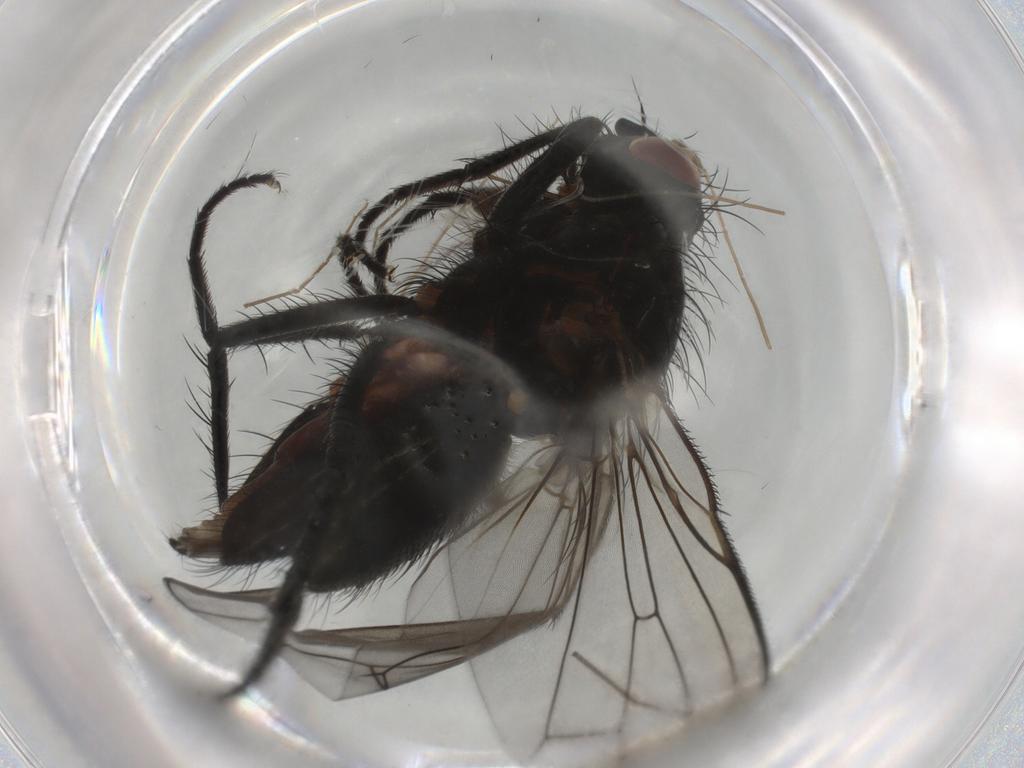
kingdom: Animalia
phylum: Arthropoda
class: Insecta
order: Diptera
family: Anthomyiidae
